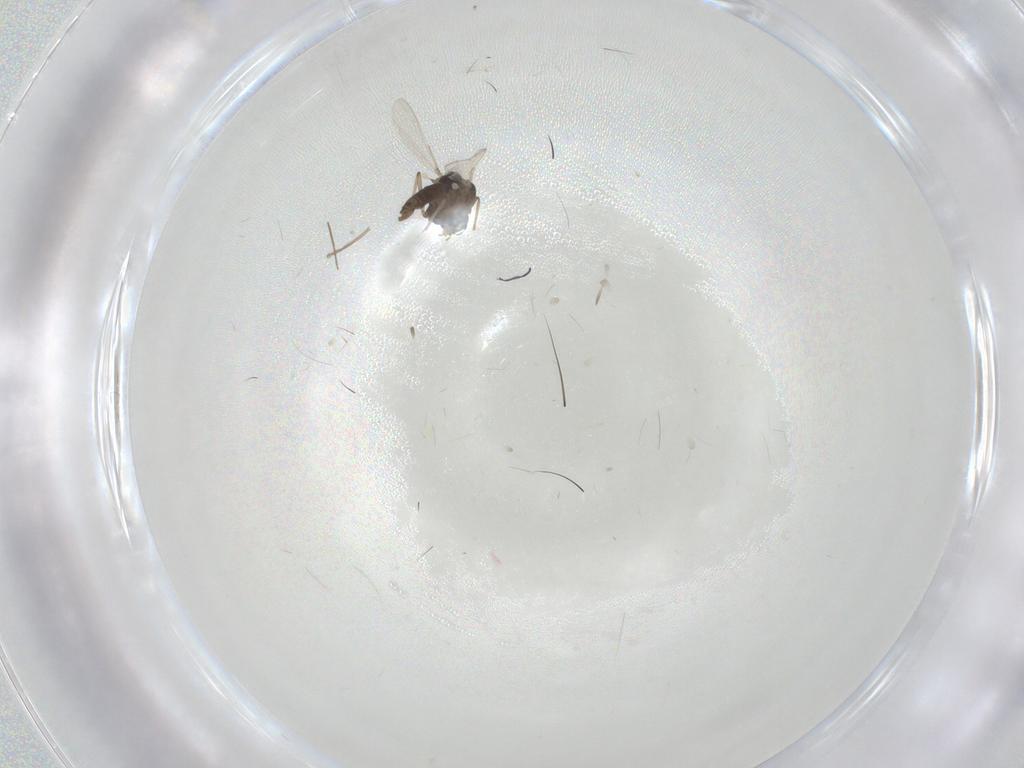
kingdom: Animalia
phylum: Arthropoda
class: Insecta
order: Diptera
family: Chironomidae
